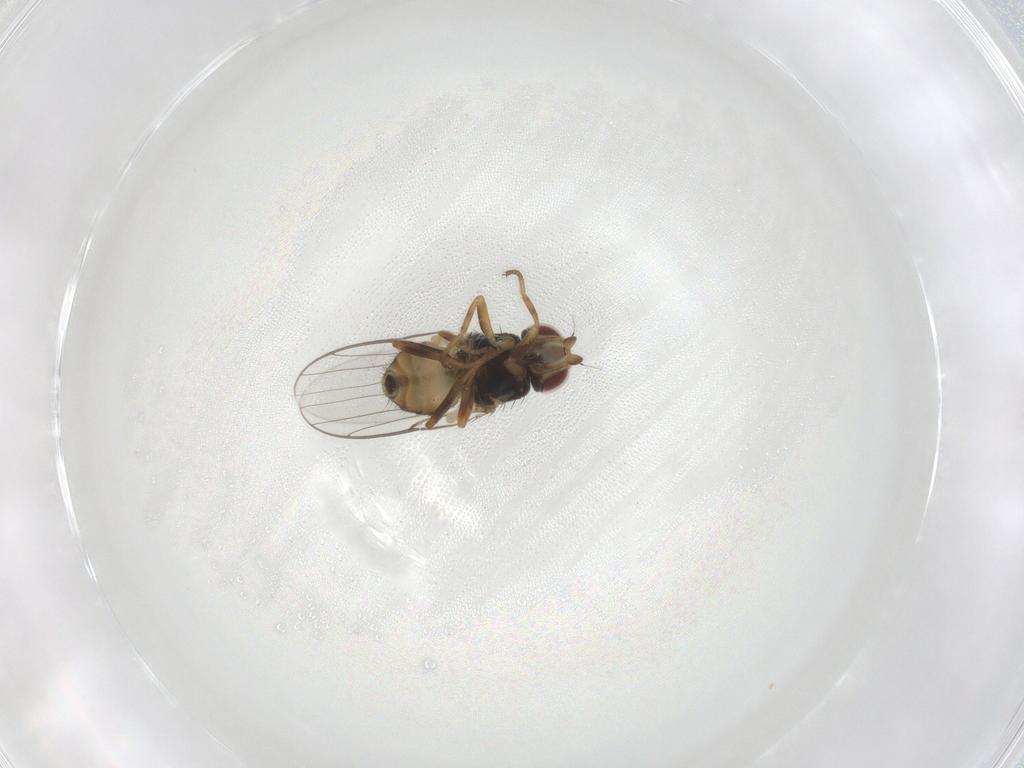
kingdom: Animalia
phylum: Arthropoda
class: Insecta
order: Diptera
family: Chloropidae
